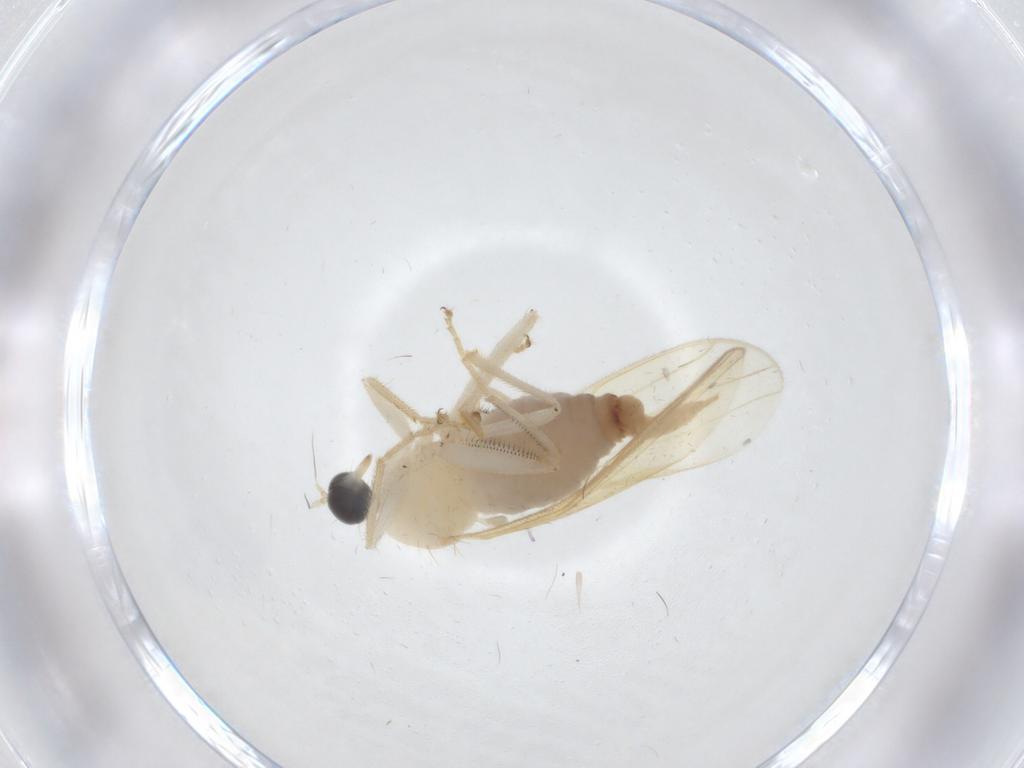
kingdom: Animalia
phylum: Arthropoda
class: Insecta
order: Diptera
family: Hybotidae
